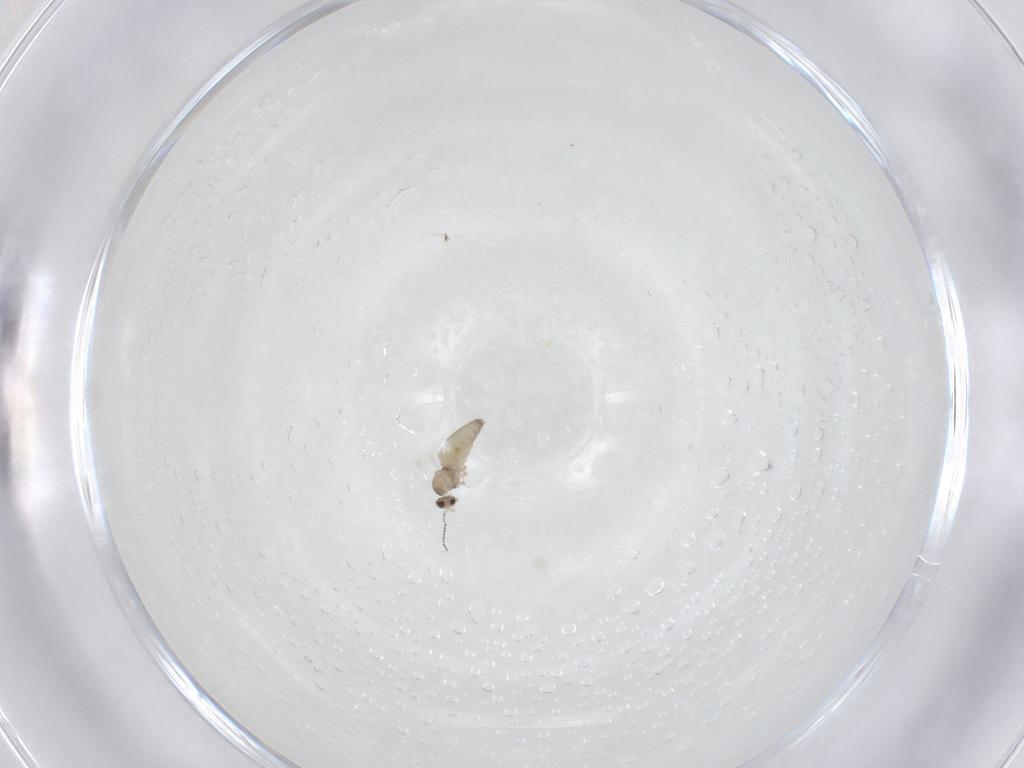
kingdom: Animalia
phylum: Arthropoda
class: Insecta
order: Diptera
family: Cecidomyiidae
